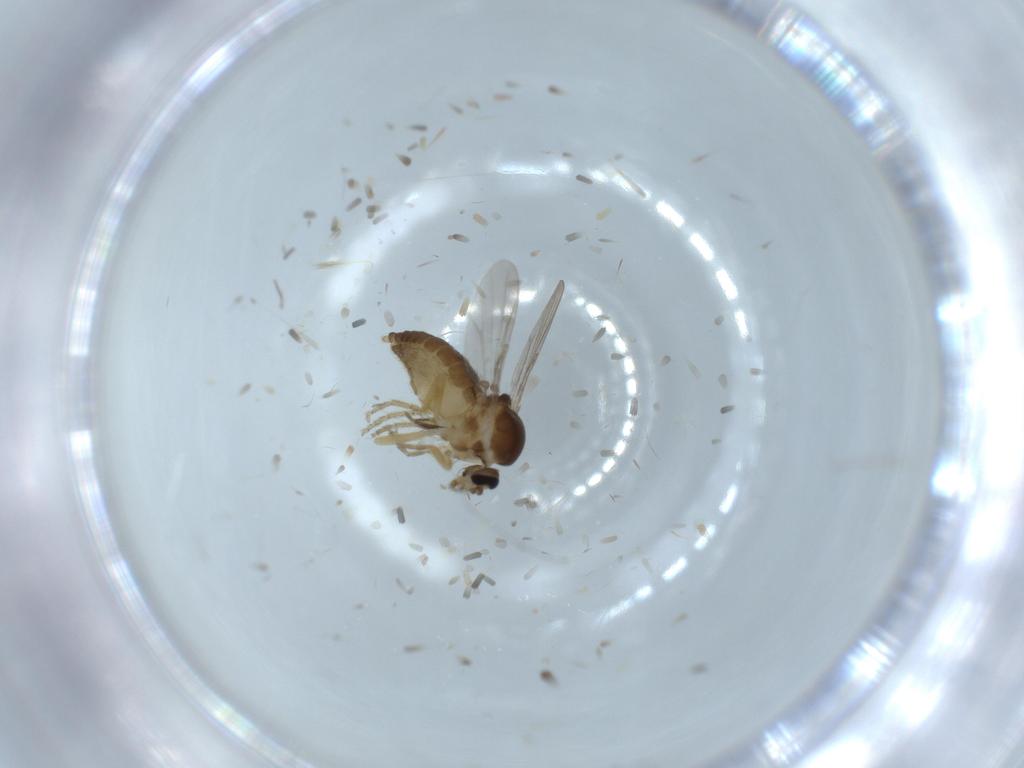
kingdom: Animalia
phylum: Arthropoda
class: Insecta
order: Diptera
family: Ceratopogonidae
